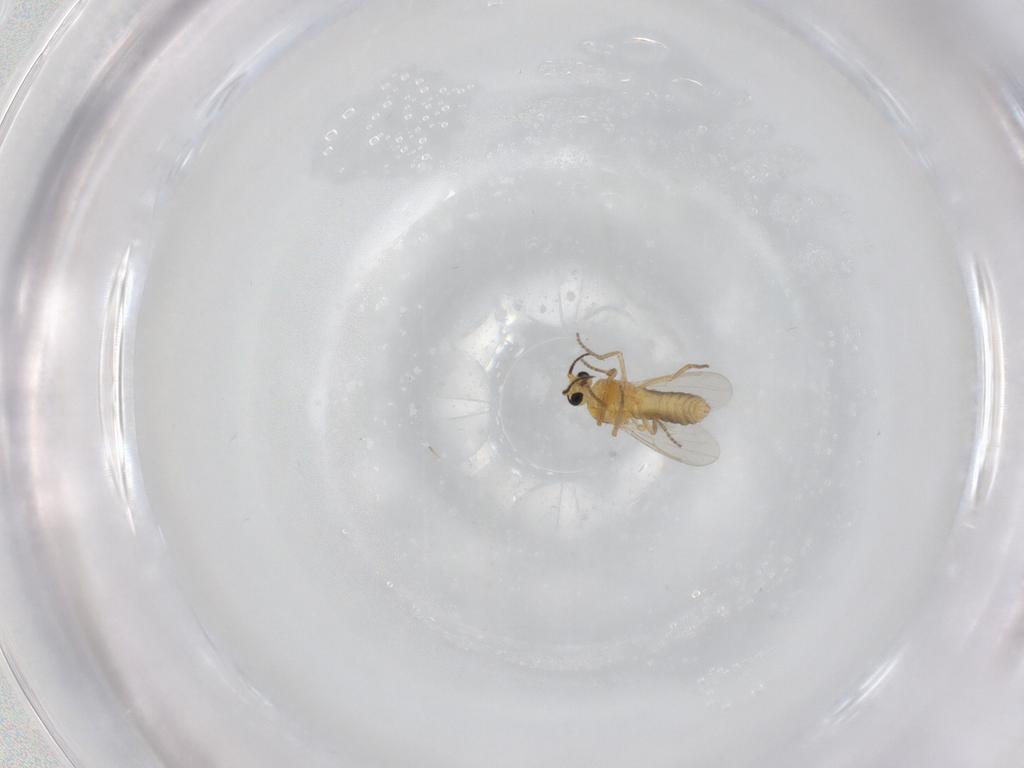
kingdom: Animalia
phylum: Arthropoda
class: Insecta
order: Diptera
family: Ceratopogonidae
